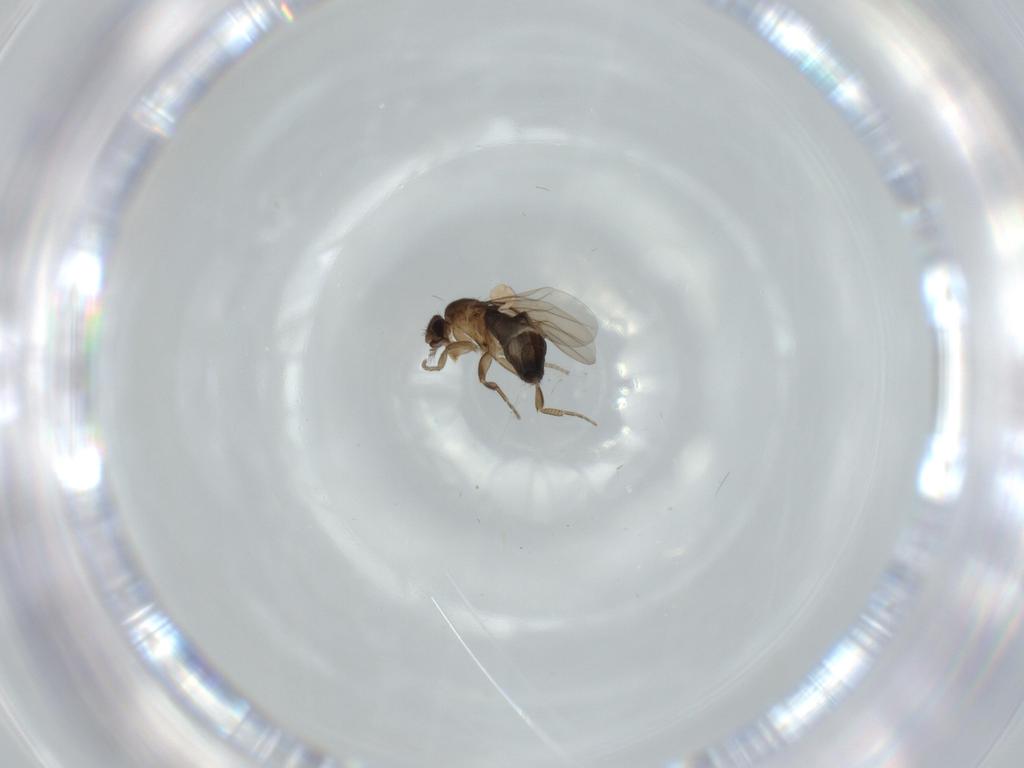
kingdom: Animalia
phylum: Arthropoda
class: Insecta
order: Diptera
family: Phoridae
